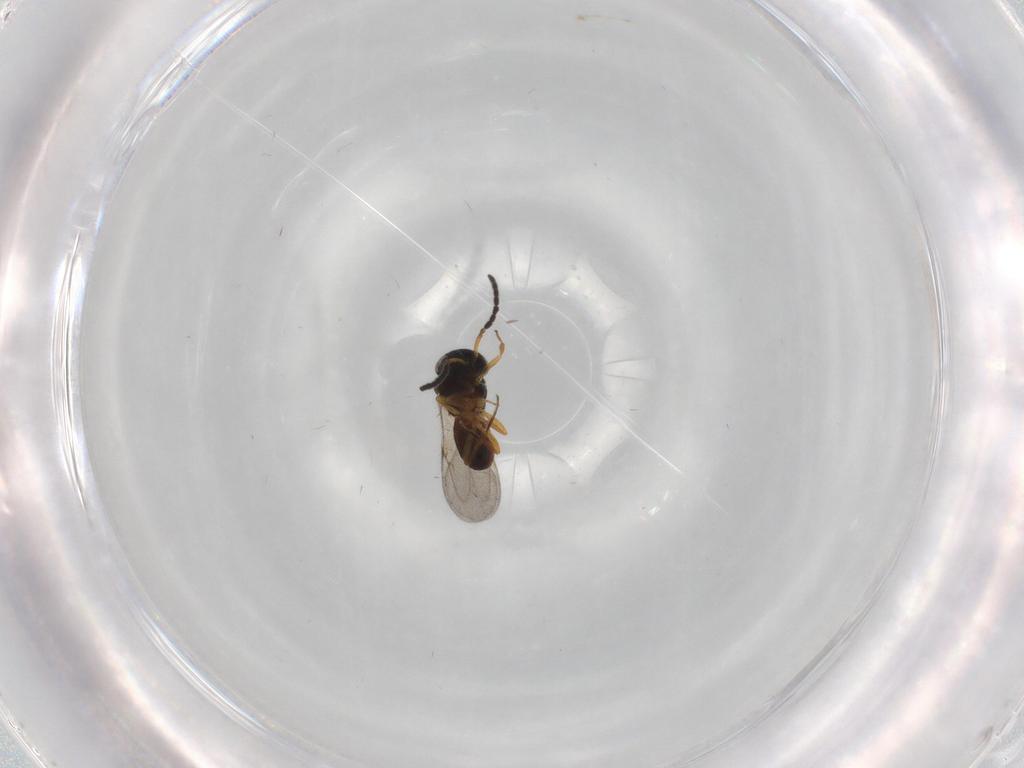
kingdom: Animalia
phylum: Arthropoda
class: Insecta
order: Coleoptera
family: Curculionidae
